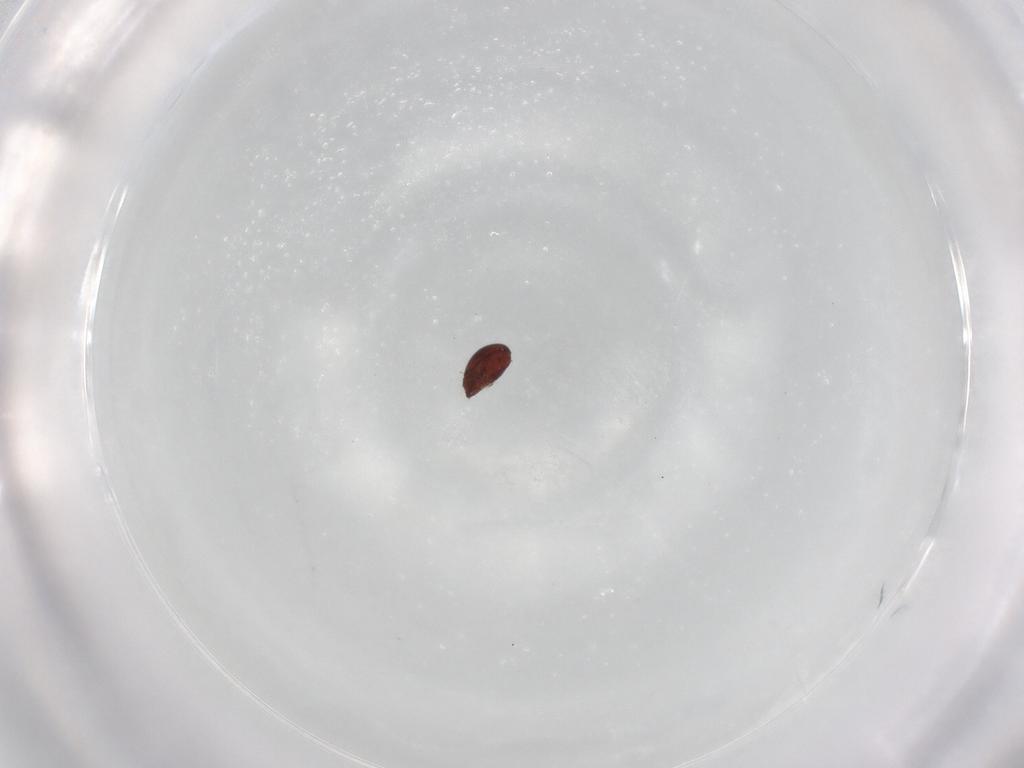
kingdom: Animalia
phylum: Arthropoda
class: Arachnida
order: Sarcoptiformes
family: Ceratozetidae
